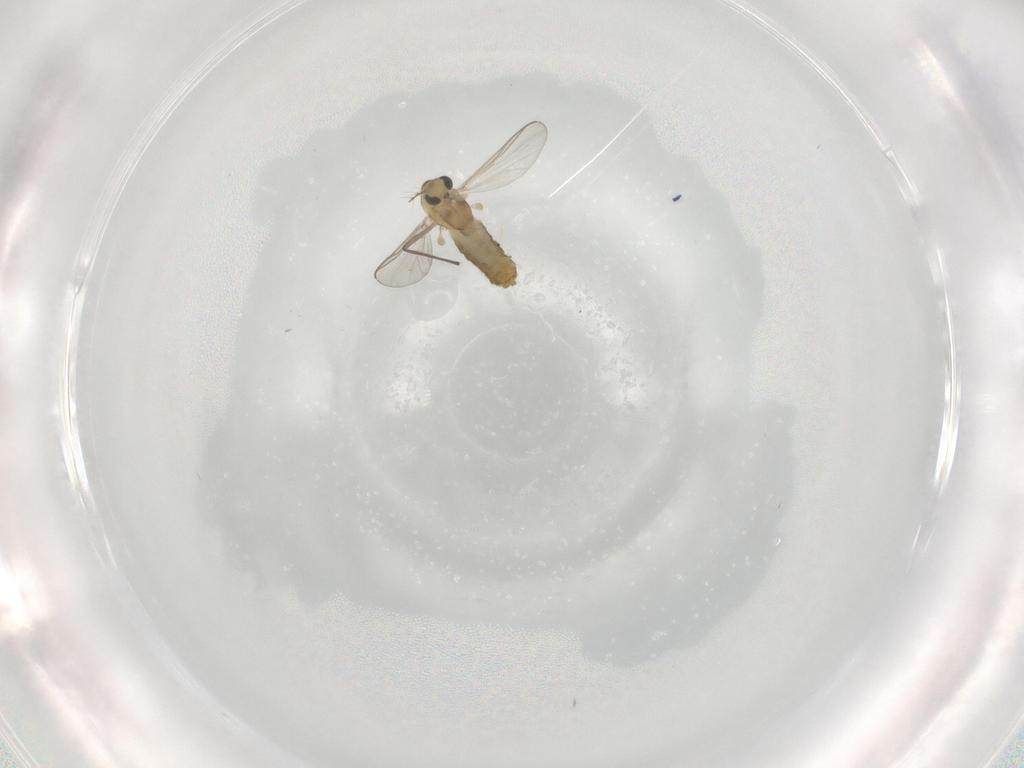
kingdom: Animalia
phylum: Arthropoda
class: Insecta
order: Diptera
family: Chironomidae
